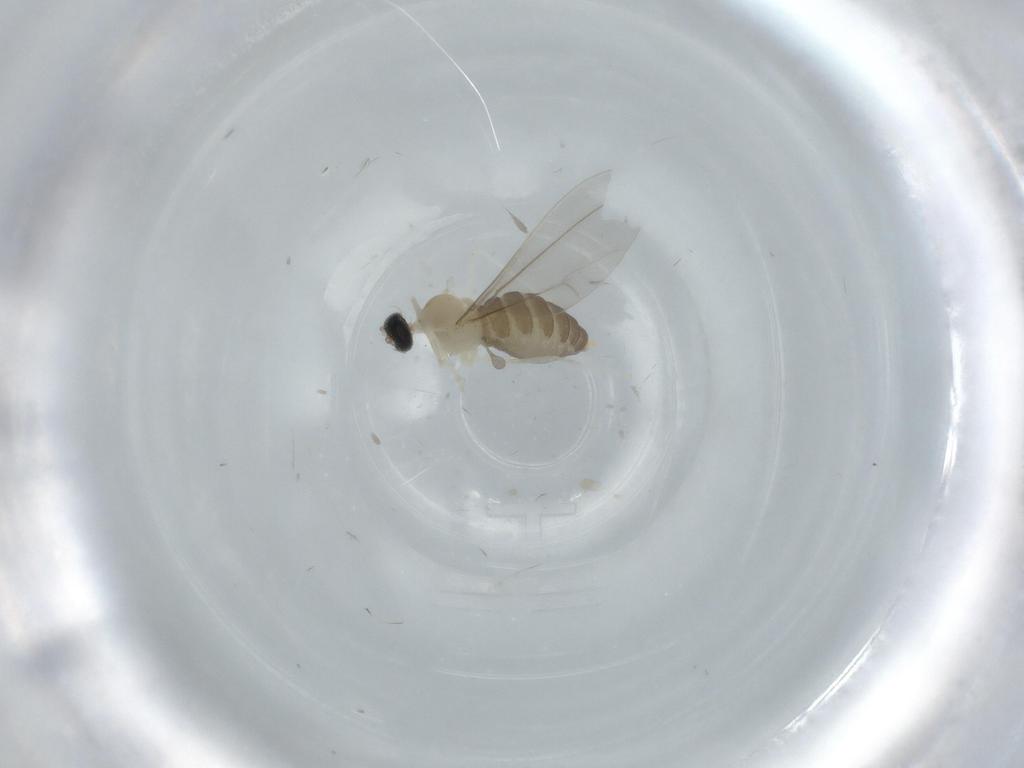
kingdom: Animalia
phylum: Arthropoda
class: Insecta
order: Diptera
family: Cecidomyiidae
